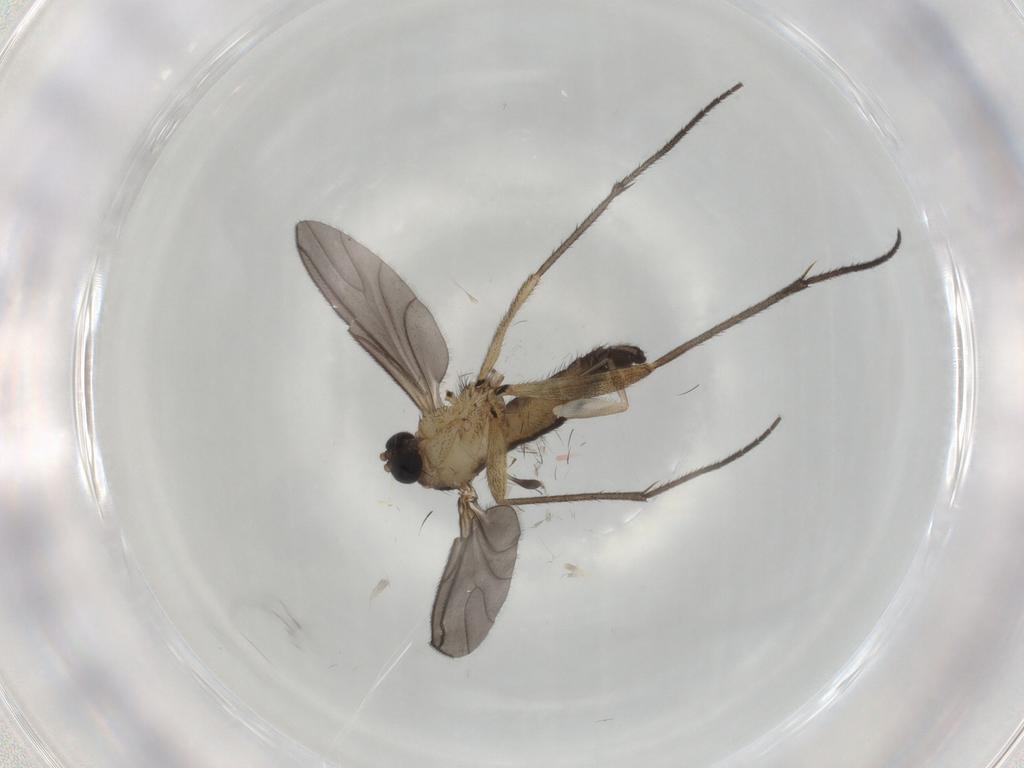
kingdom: Animalia
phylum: Arthropoda
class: Insecta
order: Diptera
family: Sciaridae
